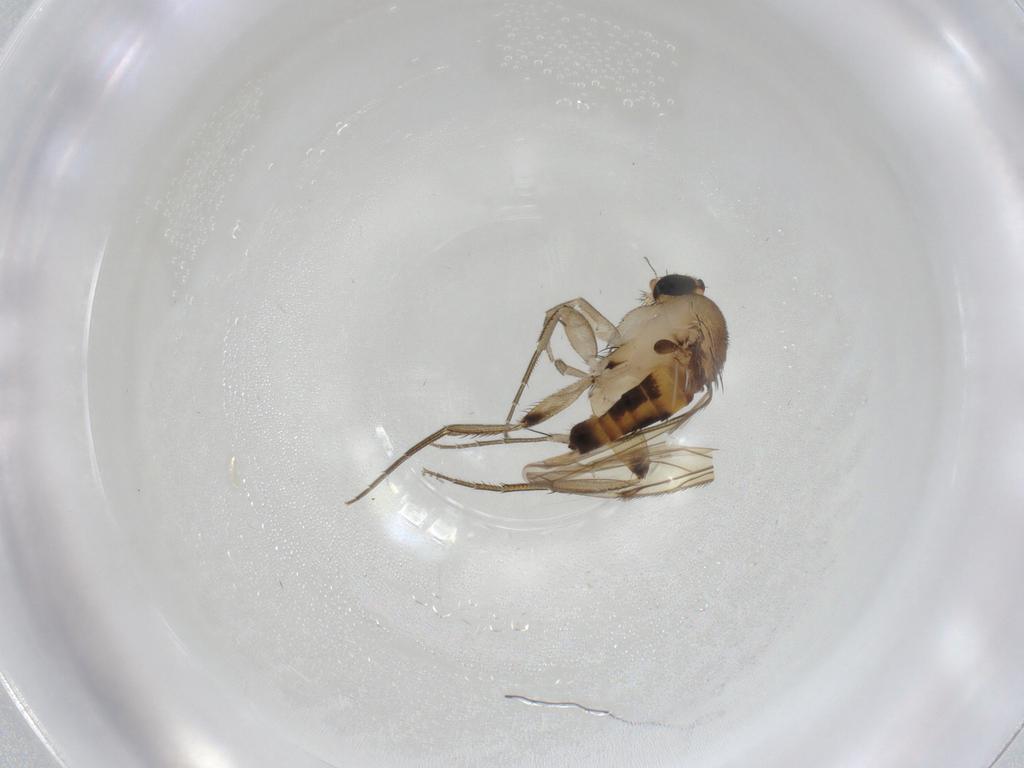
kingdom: Animalia
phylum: Arthropoda
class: Insecta
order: Diptera
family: Phoridae
